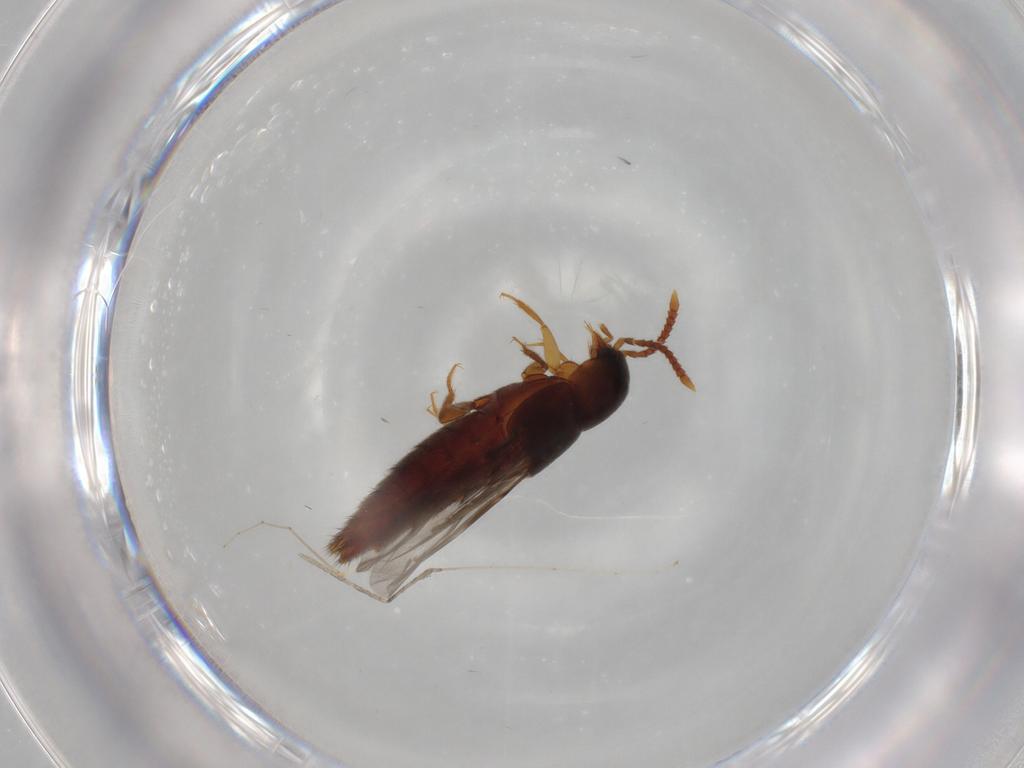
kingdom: Animalia
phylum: Arthropoda
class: Insecta
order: Coleoptera
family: Staphylinidae
